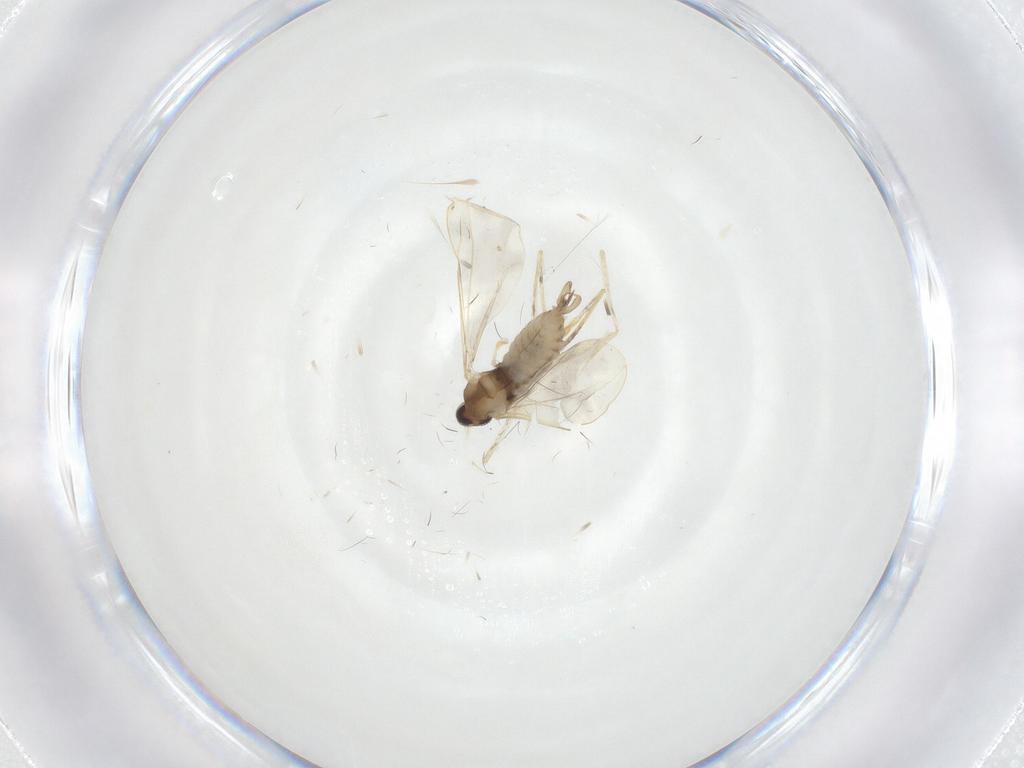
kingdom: Animalia
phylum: Arthropoda
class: Insecta
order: Diptera
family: Cecidomyiidae
